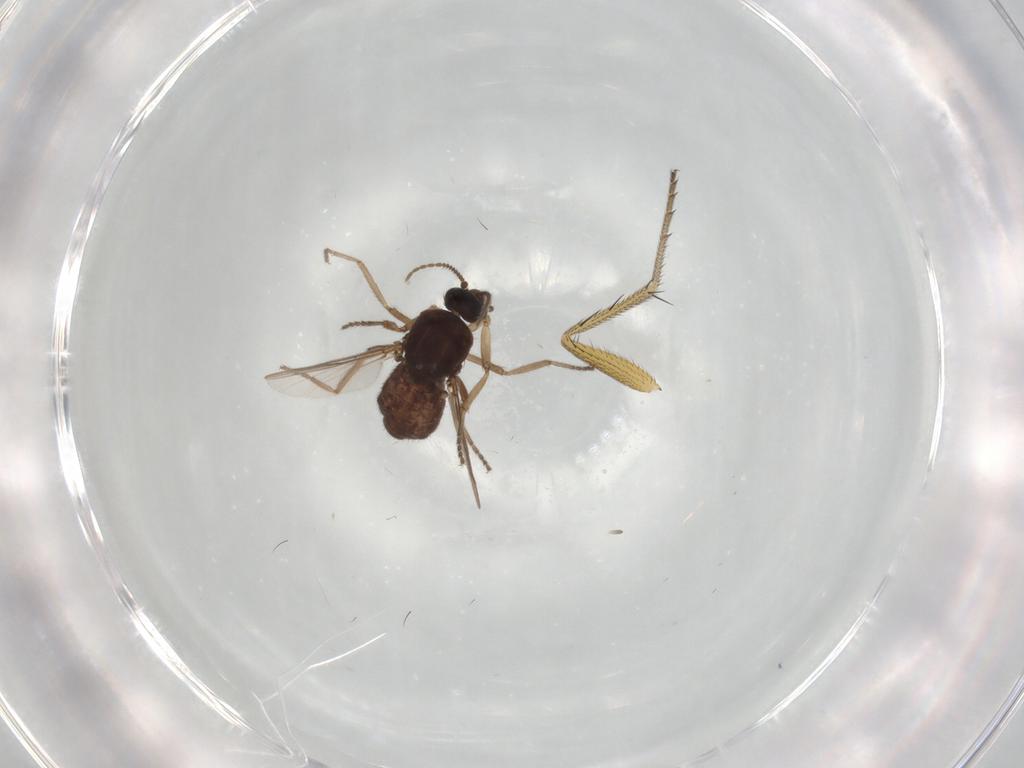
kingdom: Animalia
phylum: Arthropoda
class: Insecta
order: Diptera
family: Ceratopogonidae
